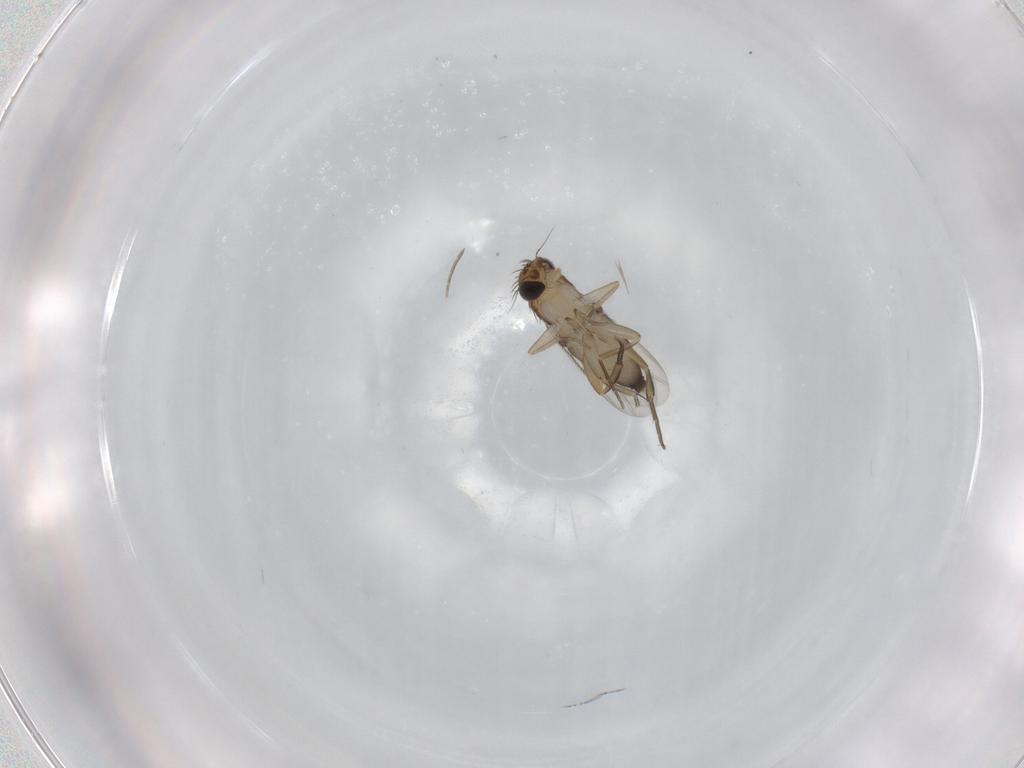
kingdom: Animalia
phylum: Arthropoda
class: Insecta
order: Diptera
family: Phoridae
